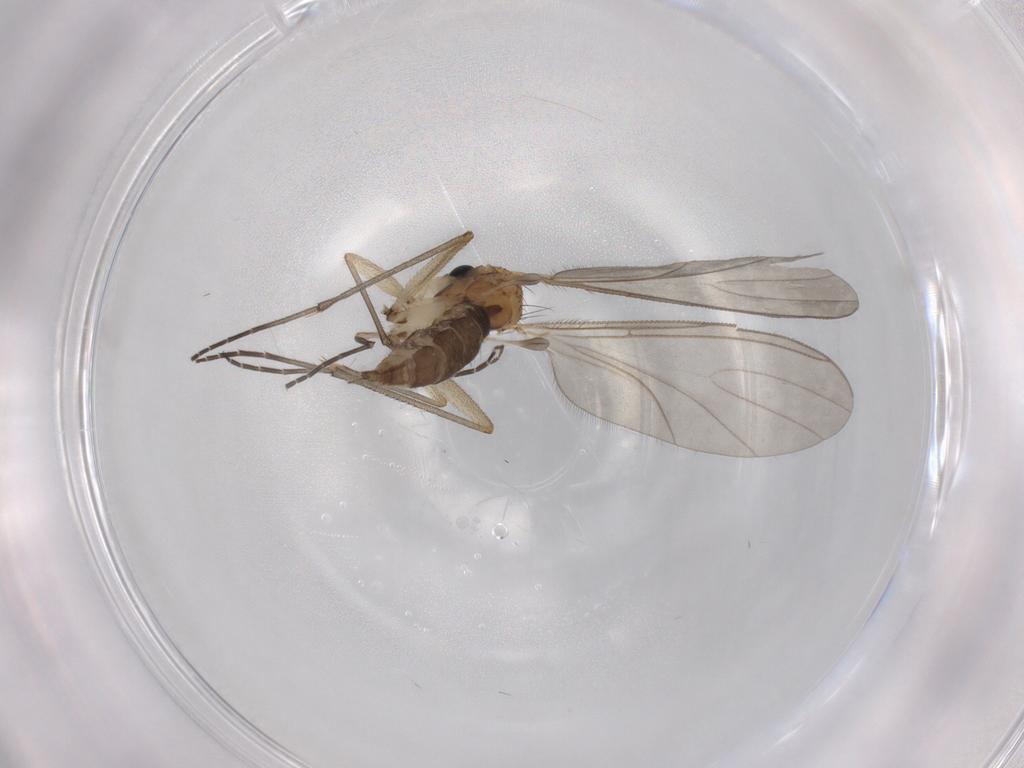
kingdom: Animalia
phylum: Arthropoda
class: Insecta
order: Diptera
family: Sciaridae
